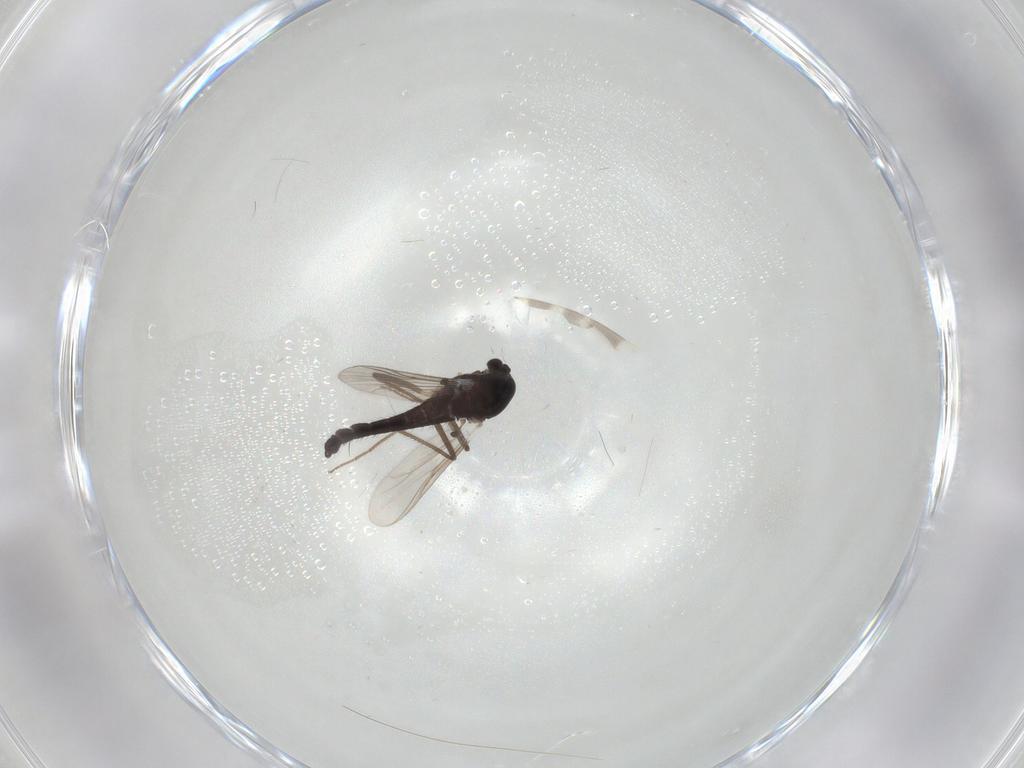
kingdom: Animalia
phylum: Arthropoda
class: Insecta
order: Diptera
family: Chironomidae
